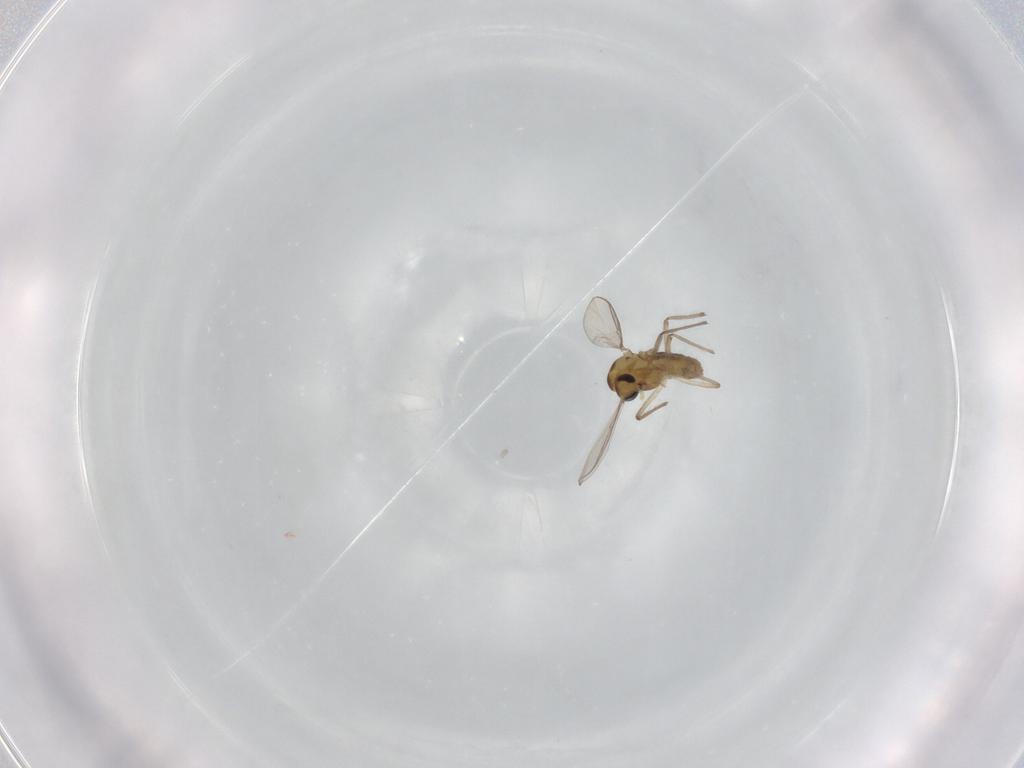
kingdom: Animalia
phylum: Arthropoda
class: Insecta
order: Diptera
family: Chironomidae
